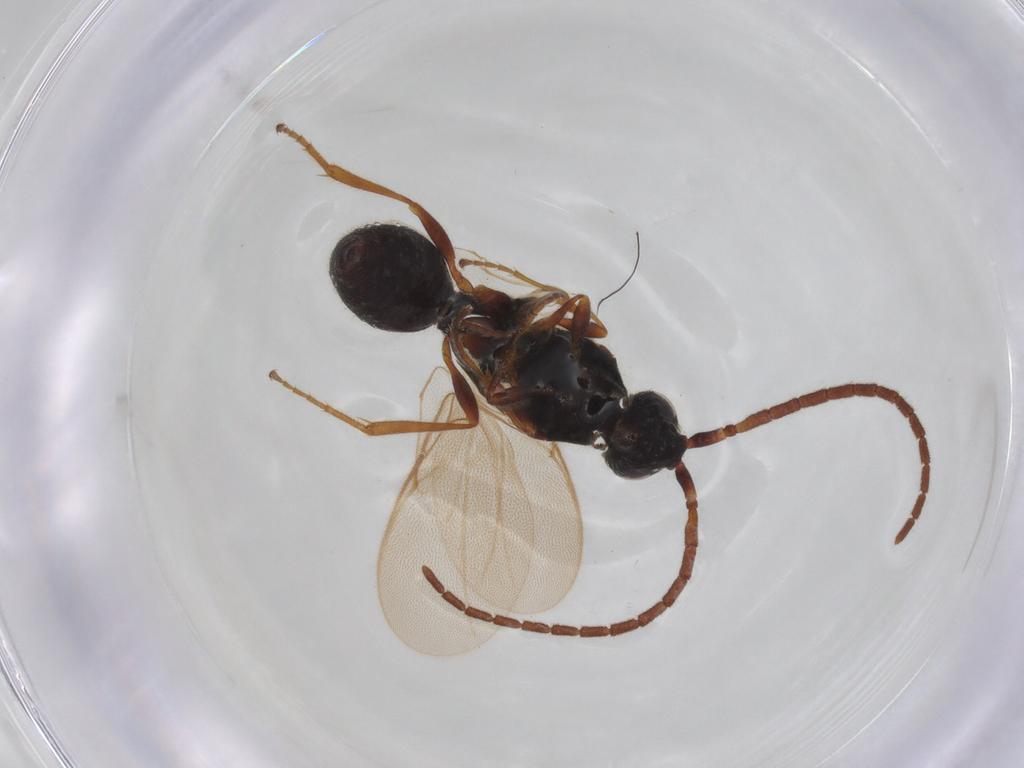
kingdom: Animalia
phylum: Arthropoda
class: Insecta
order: Hymenoptera
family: Diapriidae
